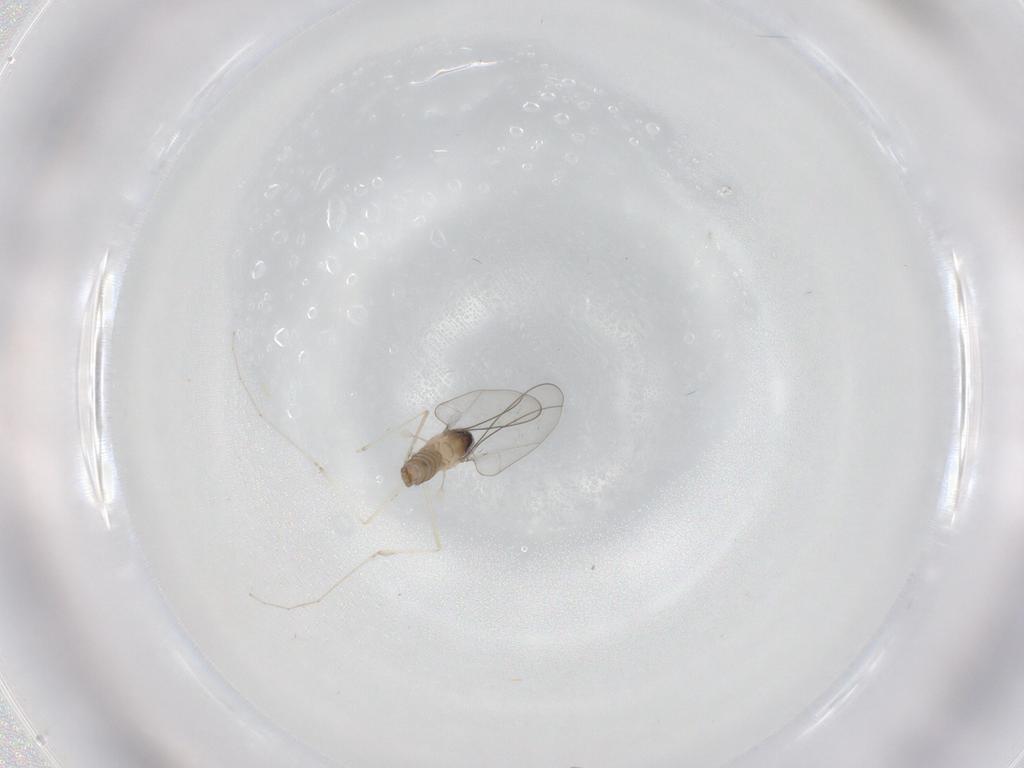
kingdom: Animalia
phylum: Arthropoda
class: Insecta
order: Diptera
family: Cecidomyiidae
